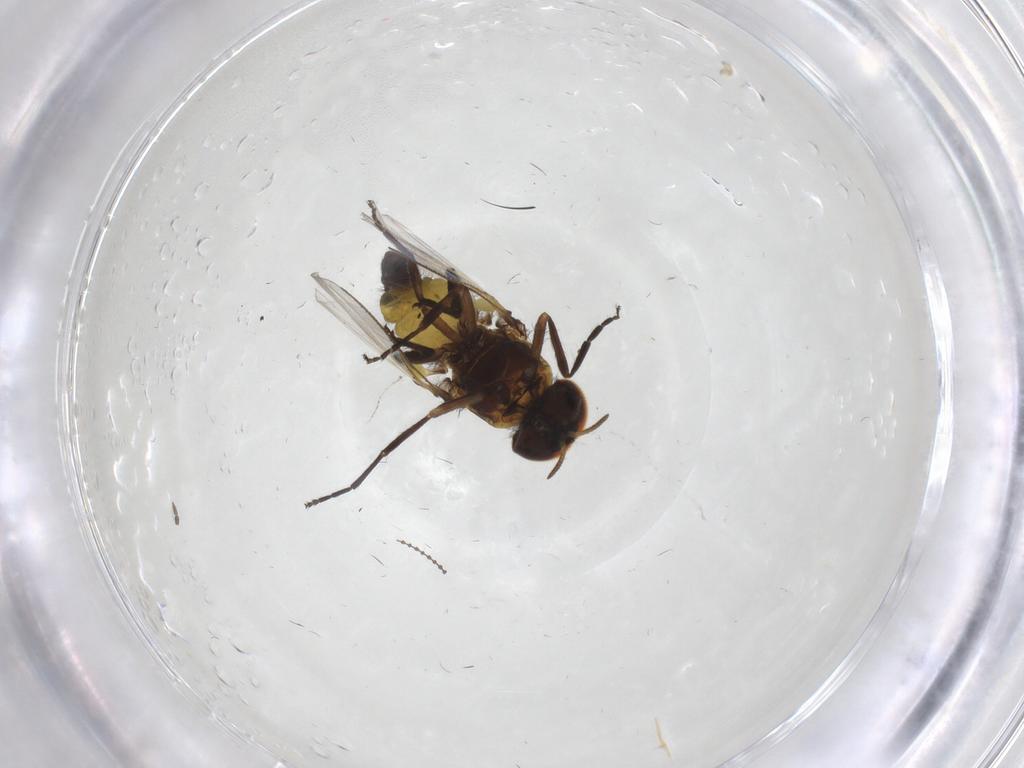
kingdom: Animalia
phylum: Arthropoda
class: Insecta
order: Diptera
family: Sciaridae
